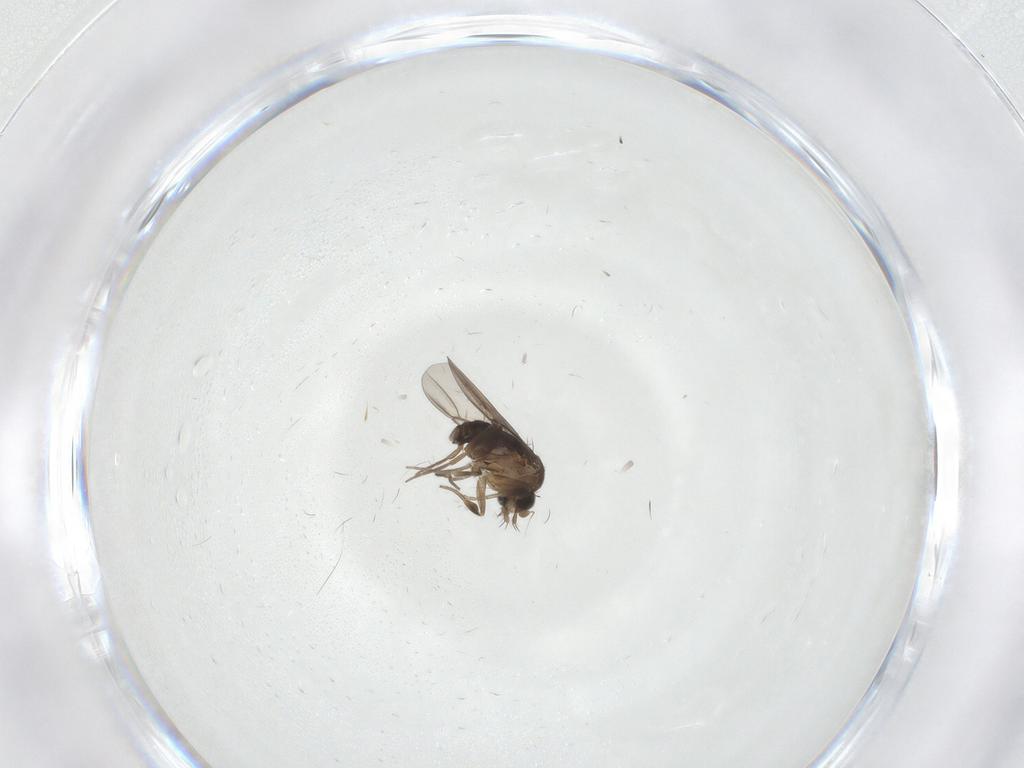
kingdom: Animalia
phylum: Arthropoda
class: Insecta
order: Diptera
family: Phoridae
